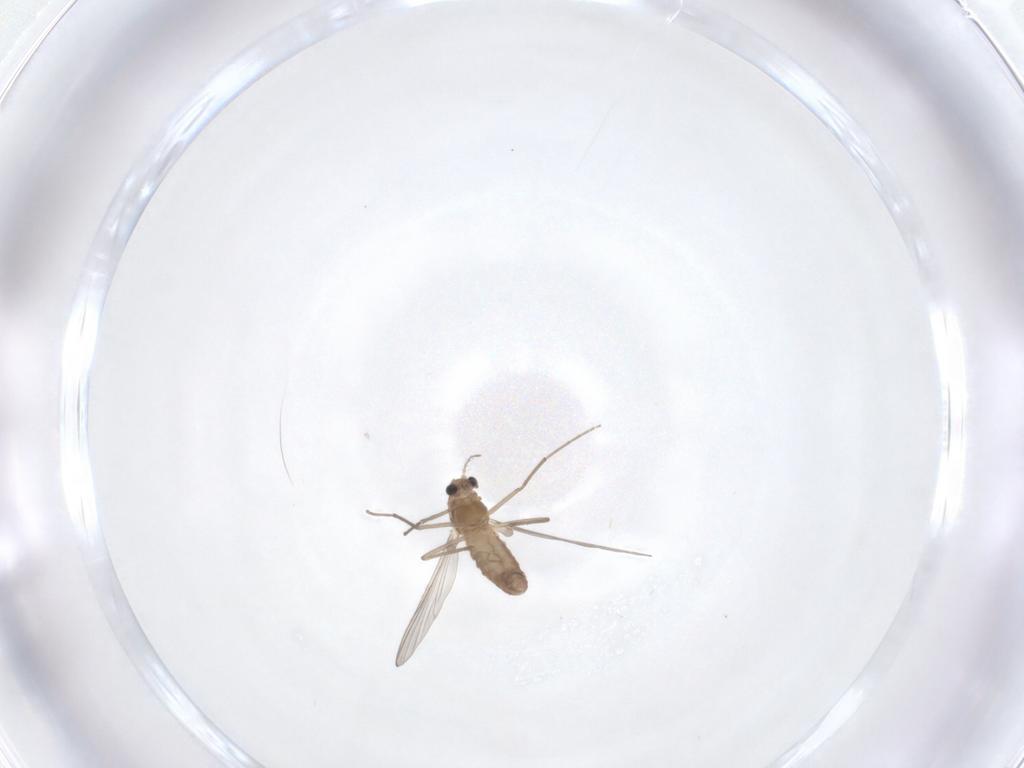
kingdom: Animalia
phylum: Arthropoda
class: Insecta
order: Diptera
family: Chironomidae
